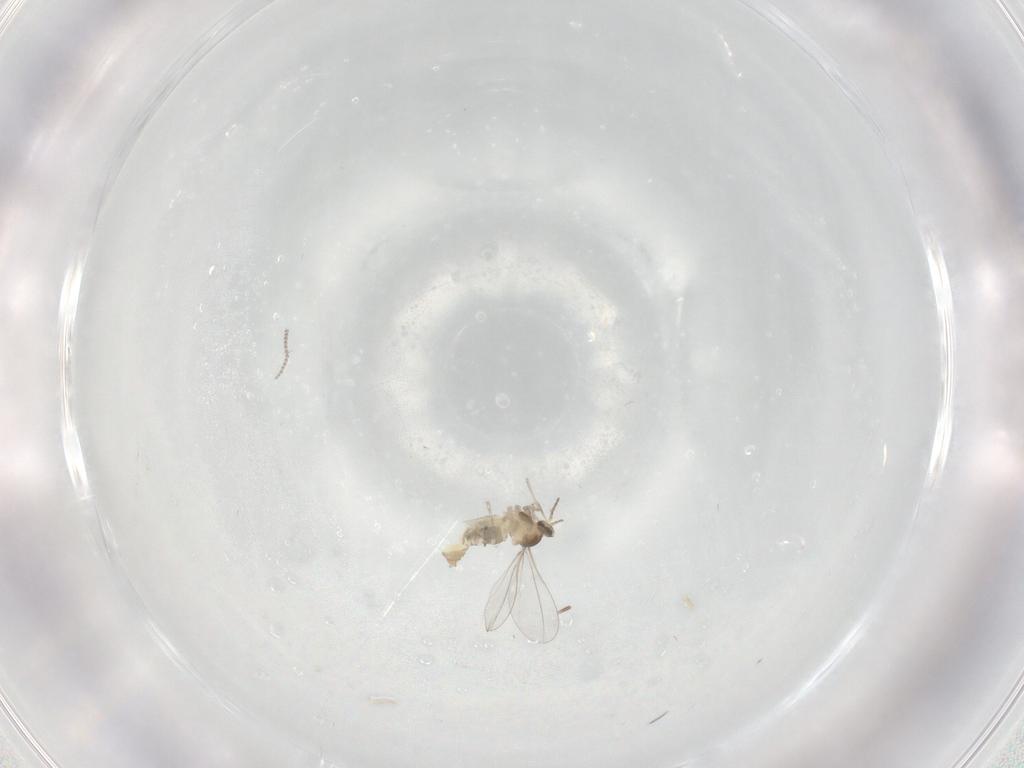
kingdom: Animalia
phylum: Arthropoda
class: Insecta
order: Diptera
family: Cecidomyiidae
